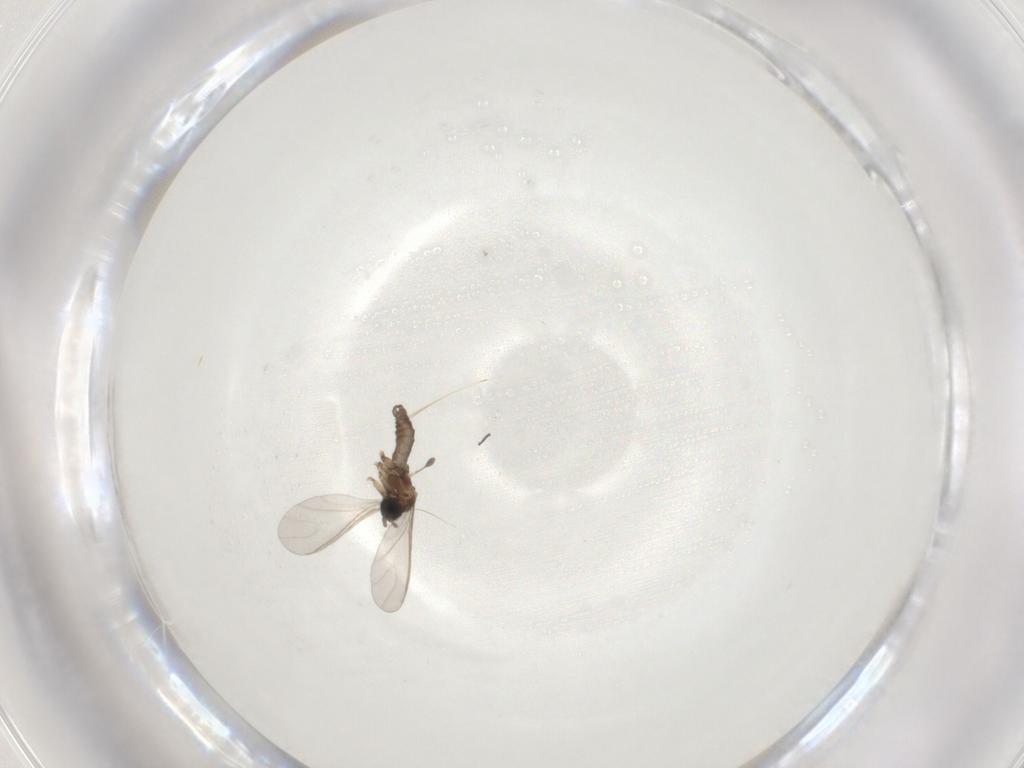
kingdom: Animalia
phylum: Arthropoda
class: Insecta
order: Diptera
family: Sciaridae
